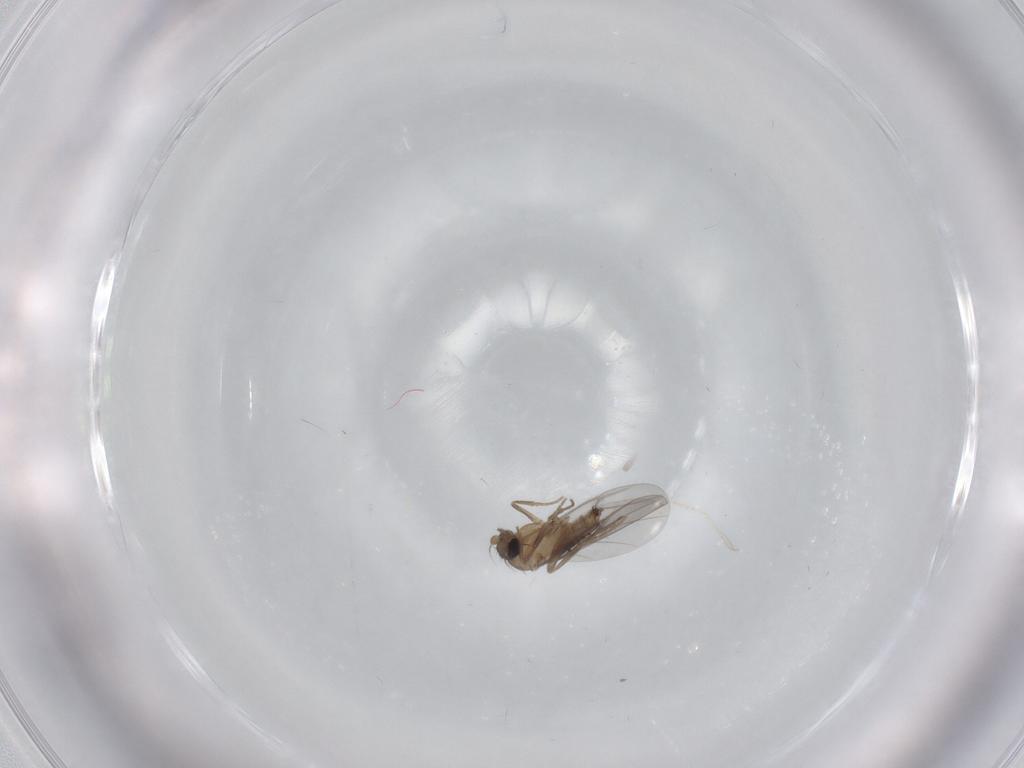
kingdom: Animalia
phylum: Arthropoda
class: Insecta
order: Diptera
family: Chironomidae
